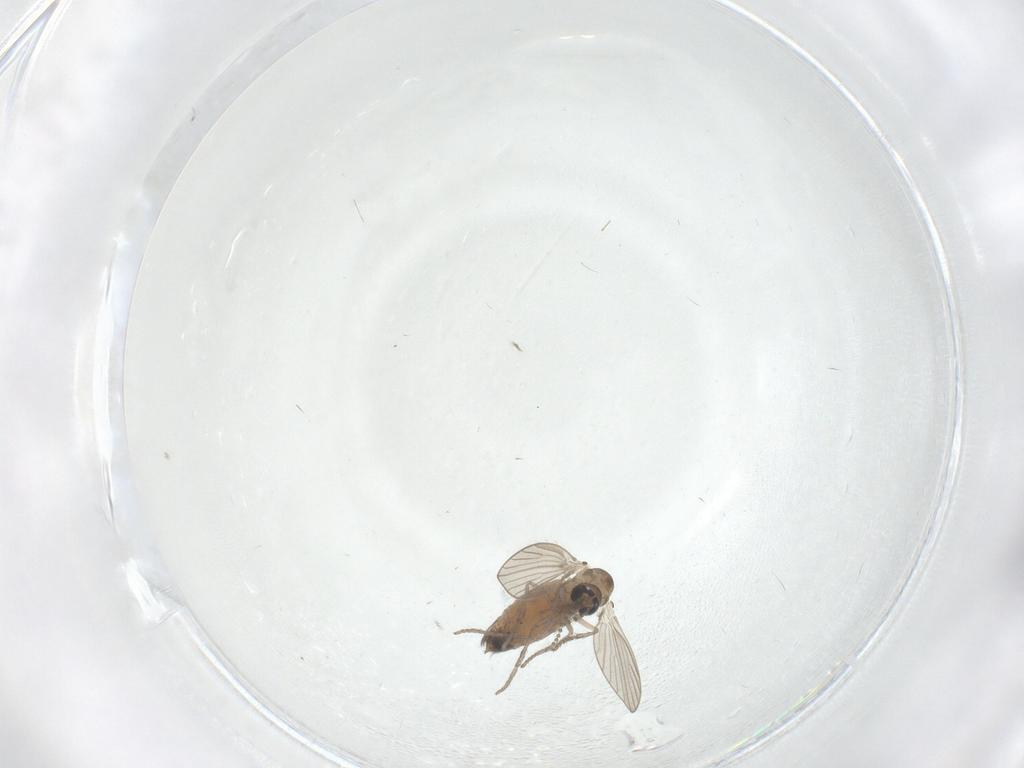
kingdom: Animalia
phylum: Arthropoda
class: Insecta
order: Diptera
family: Psychodidae
